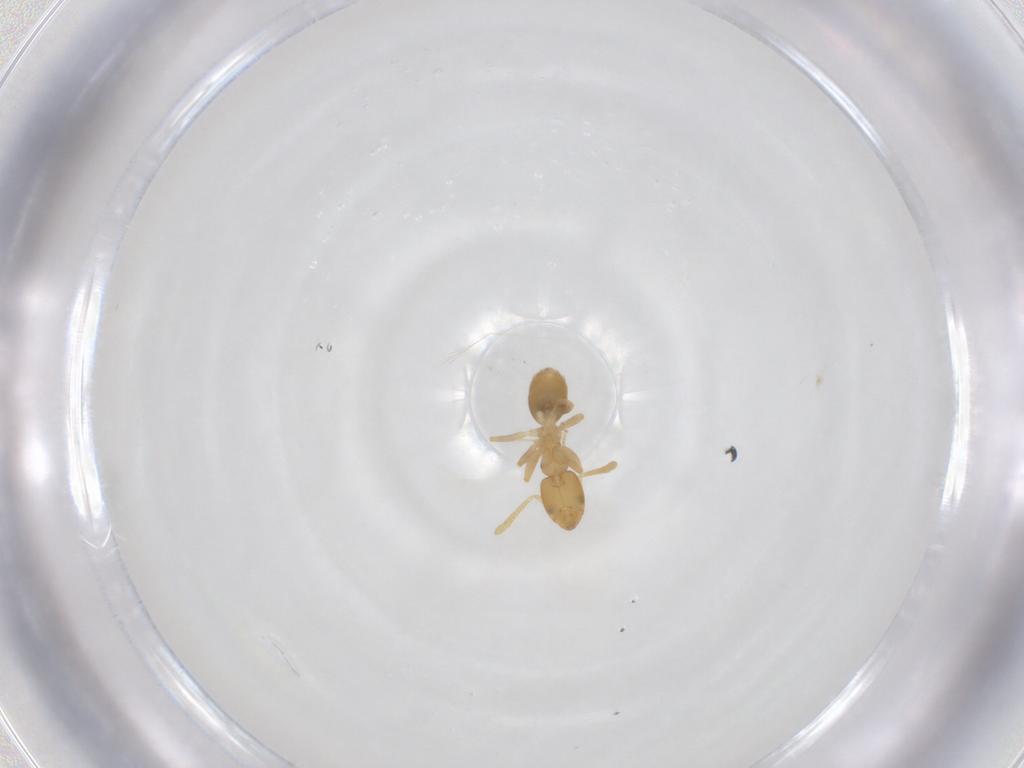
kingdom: Animalia
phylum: Arthropoda
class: Insecta
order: Hymenoptera
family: Formicidae
